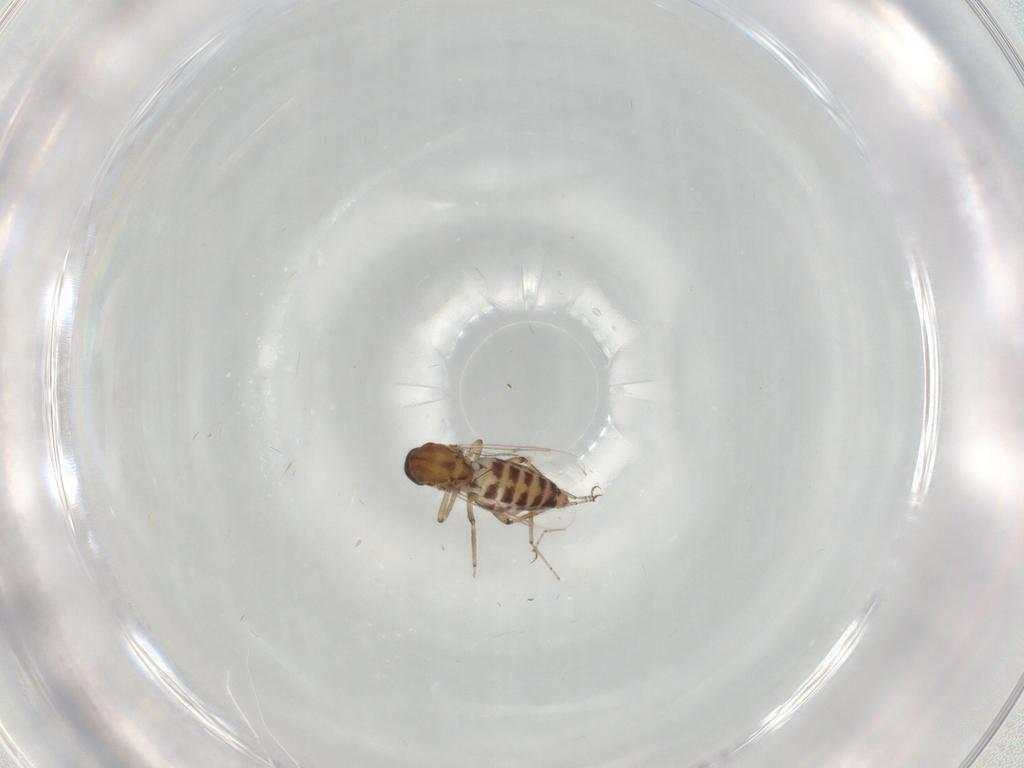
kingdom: Animalia
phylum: Arthropoda
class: Insecta
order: Diptera
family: Ceratopogonidae
